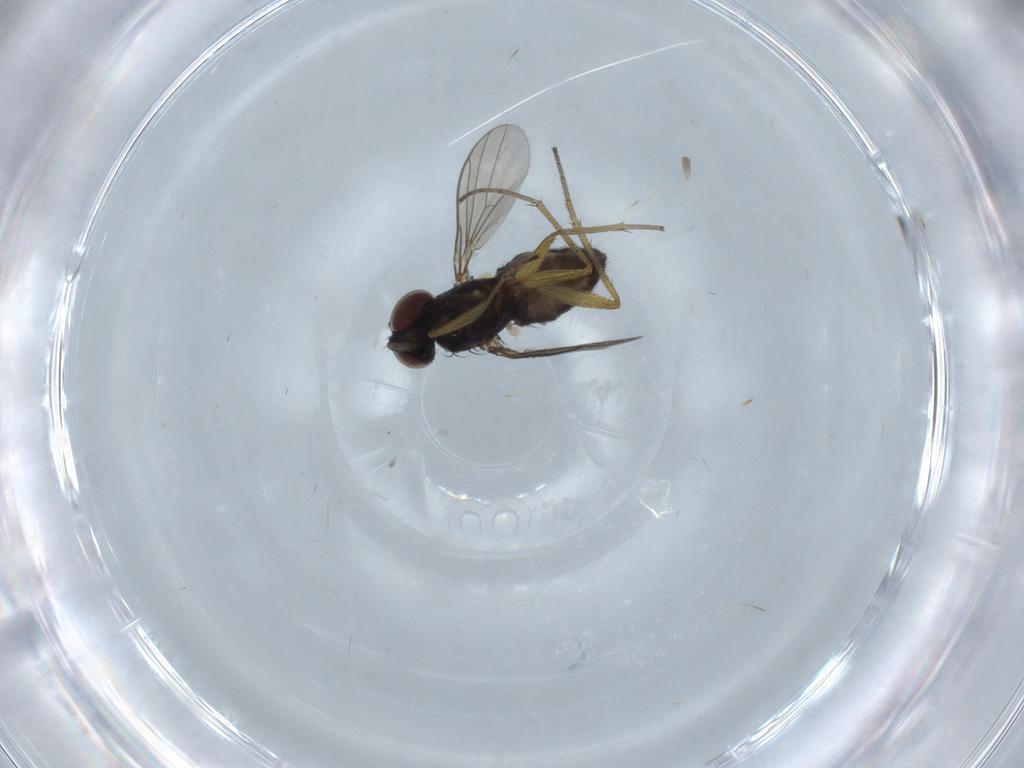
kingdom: Animalia
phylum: Arthropoda
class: Insecta
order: Diptera
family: Dolichopodidae
